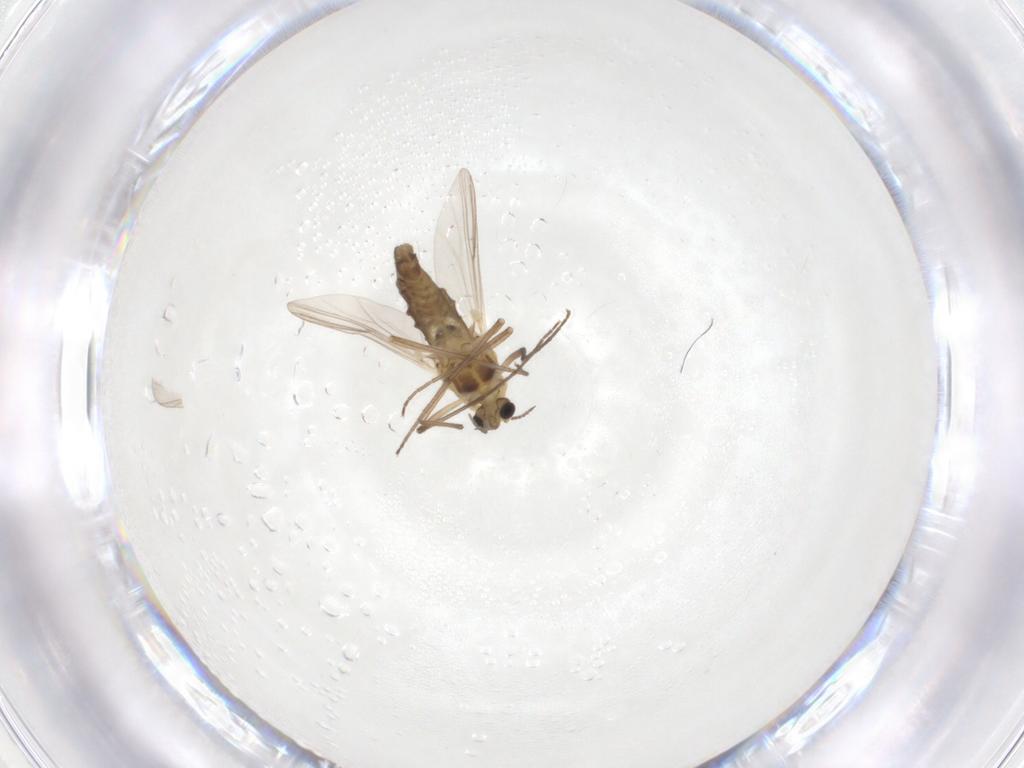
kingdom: Animalia
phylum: Arthropoda
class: Insecta
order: Diptera
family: Chironomidae
